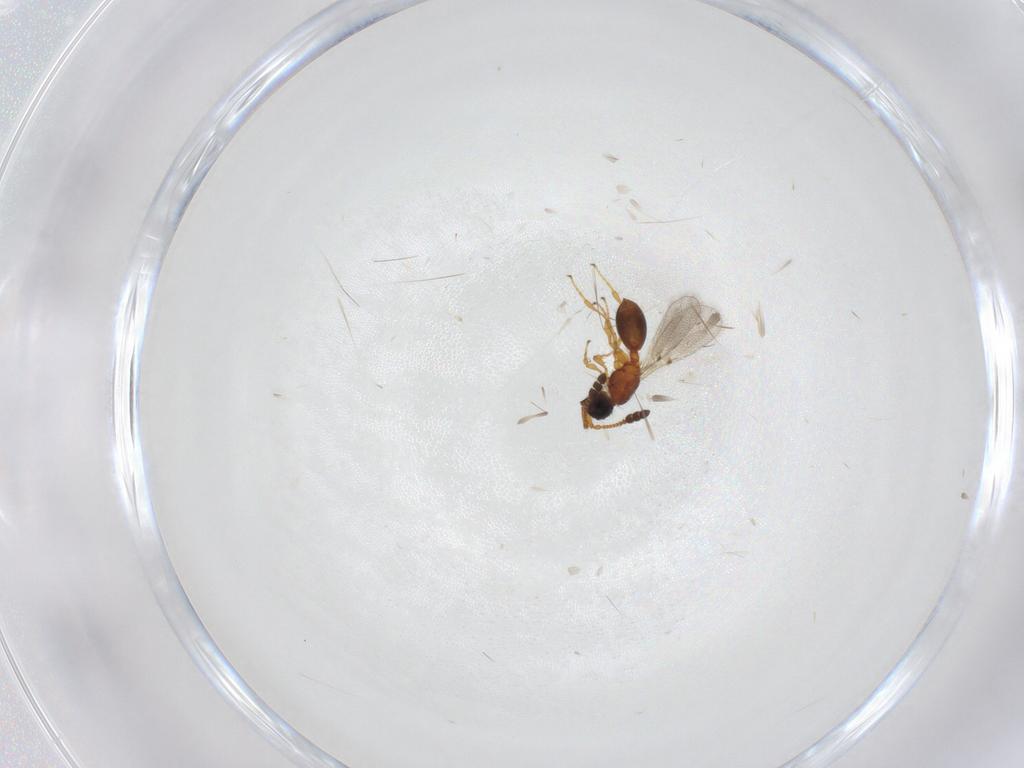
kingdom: Animalia
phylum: Arthropoda
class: Insecta
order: Hymenoptera
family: Diapriidae
